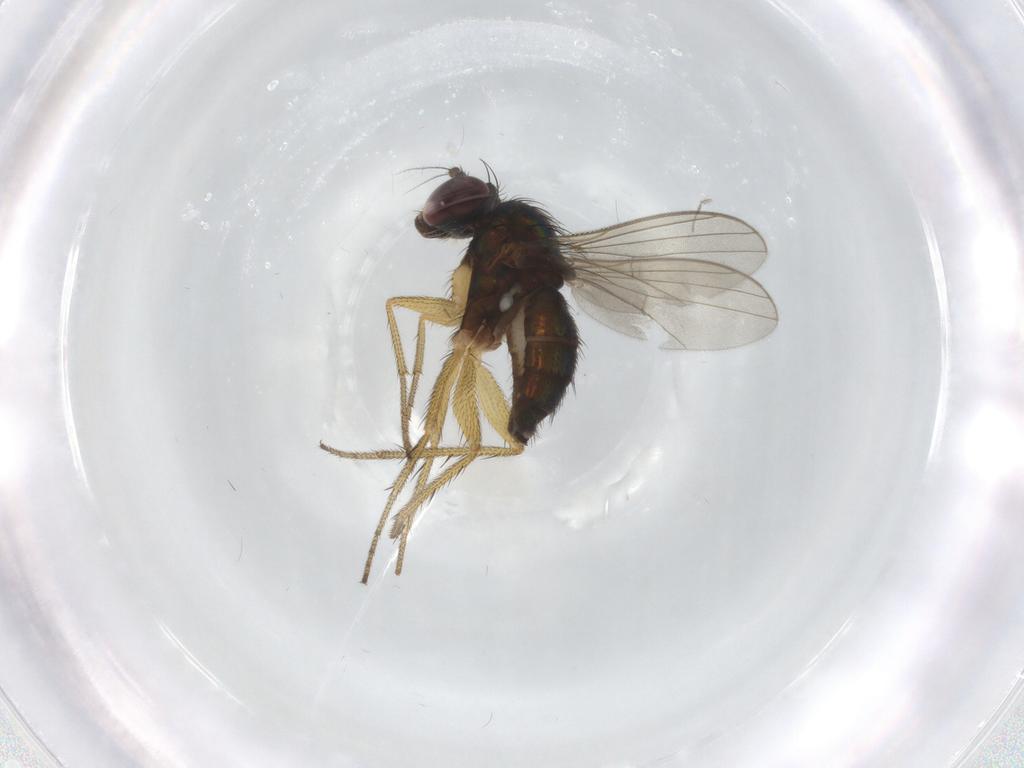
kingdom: Animalia
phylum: Arthropoda
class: Insecta
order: Diptera
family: Dolichopodidae
